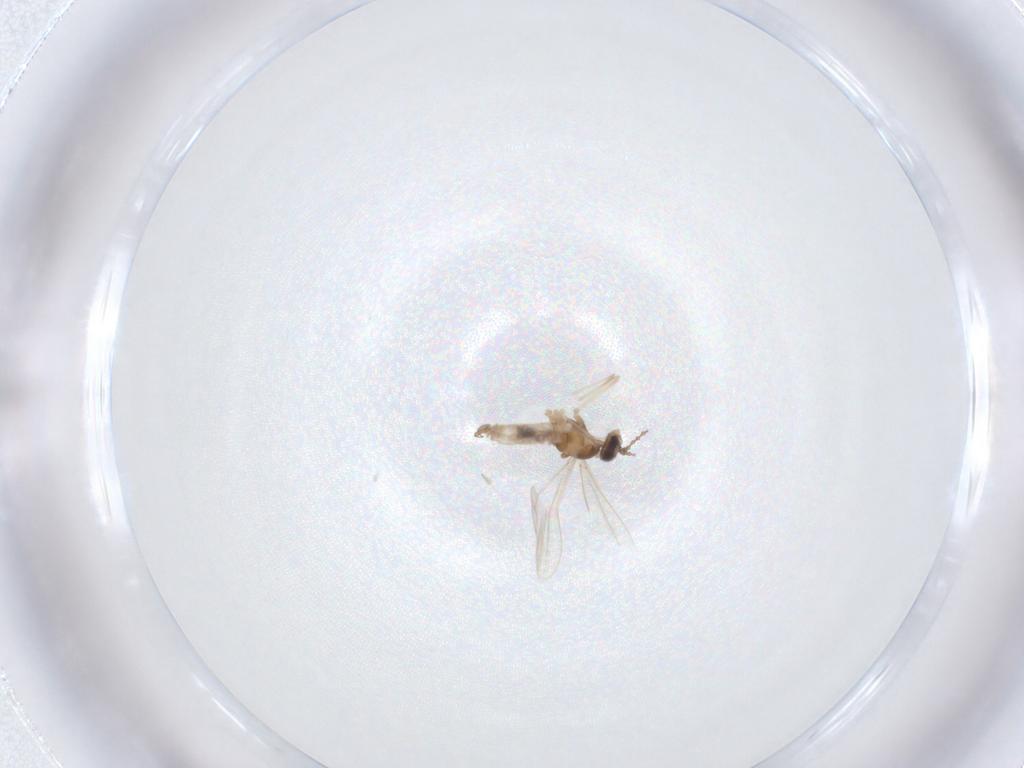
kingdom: Animalia
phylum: Arthropoda
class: Insecta
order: Diptera
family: Cecidomyiidae
